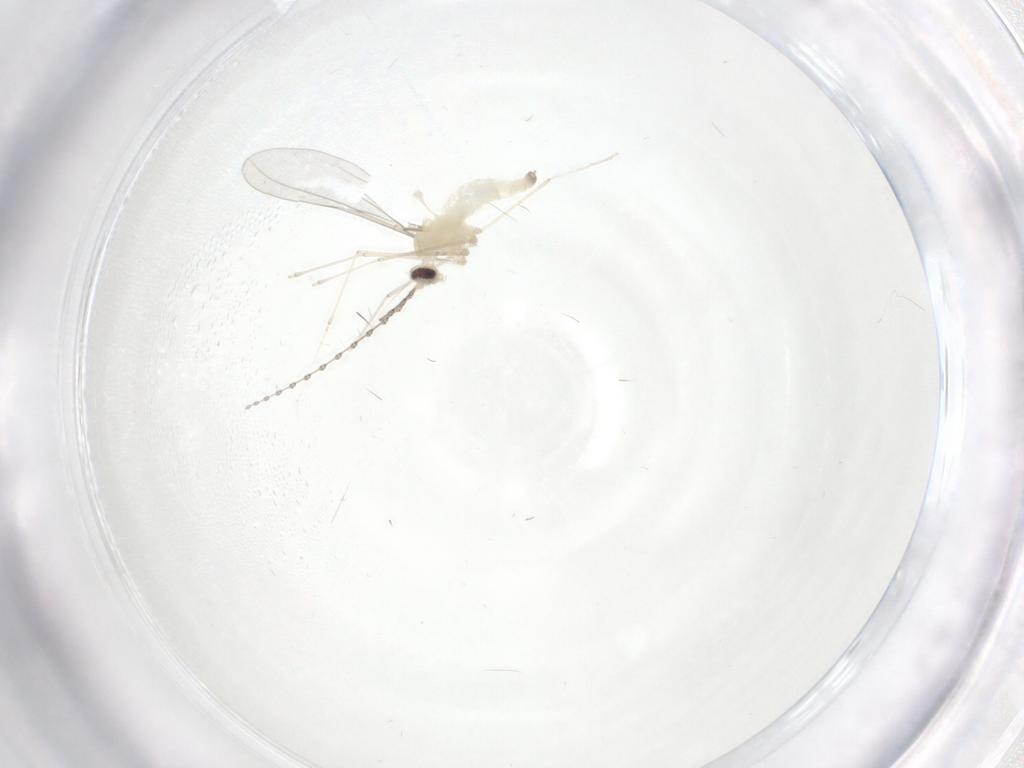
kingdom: Animalia
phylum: Arthropoda
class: Insecta
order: Diptera
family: Cecidomyiidae
